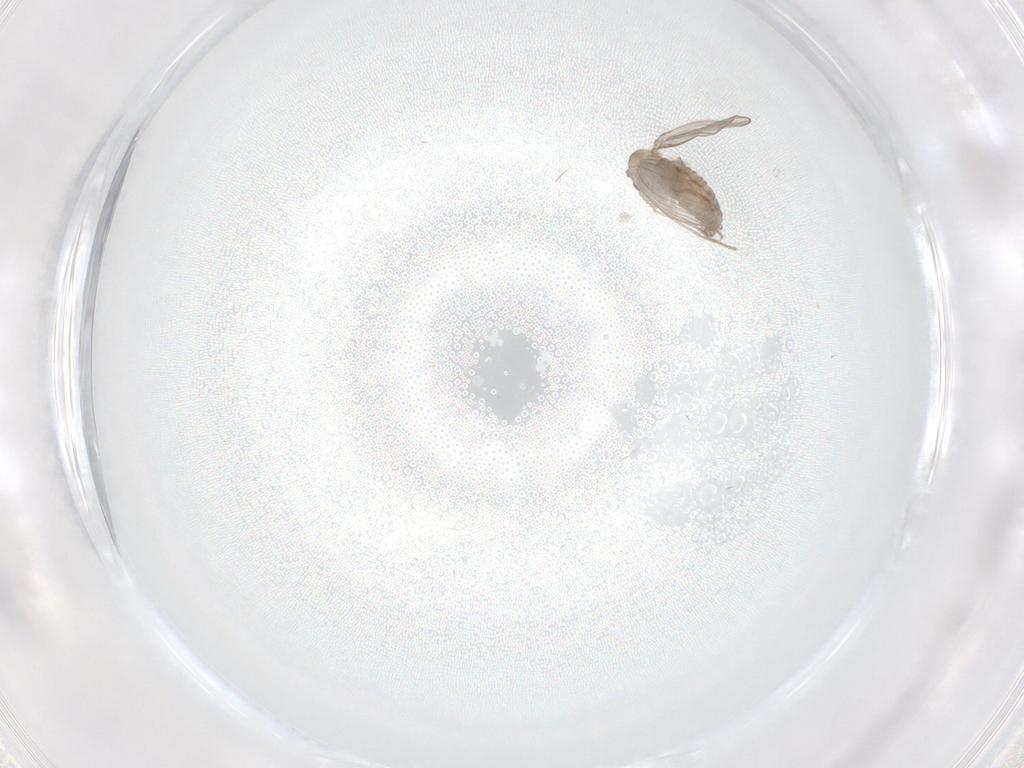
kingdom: Animalia
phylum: Arthropoda
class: Insecta
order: Diptera
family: Psychodidae
